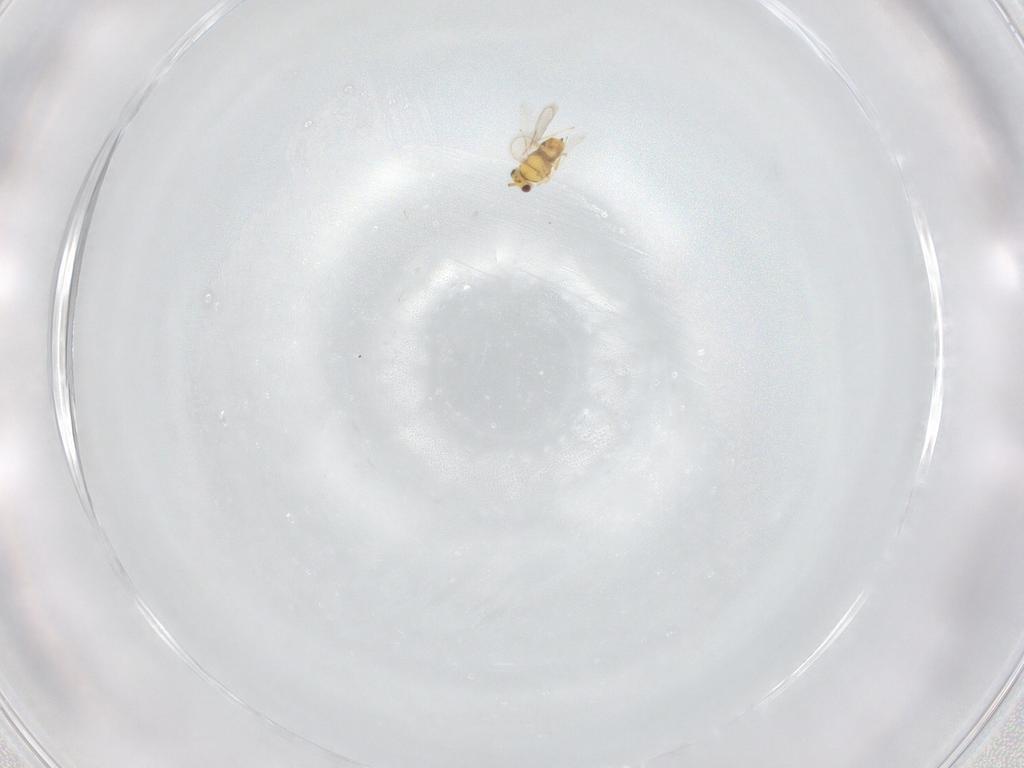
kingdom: Animalia
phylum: Arthropoda
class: Insecta
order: Hymenoptera
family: Aphelinidae
